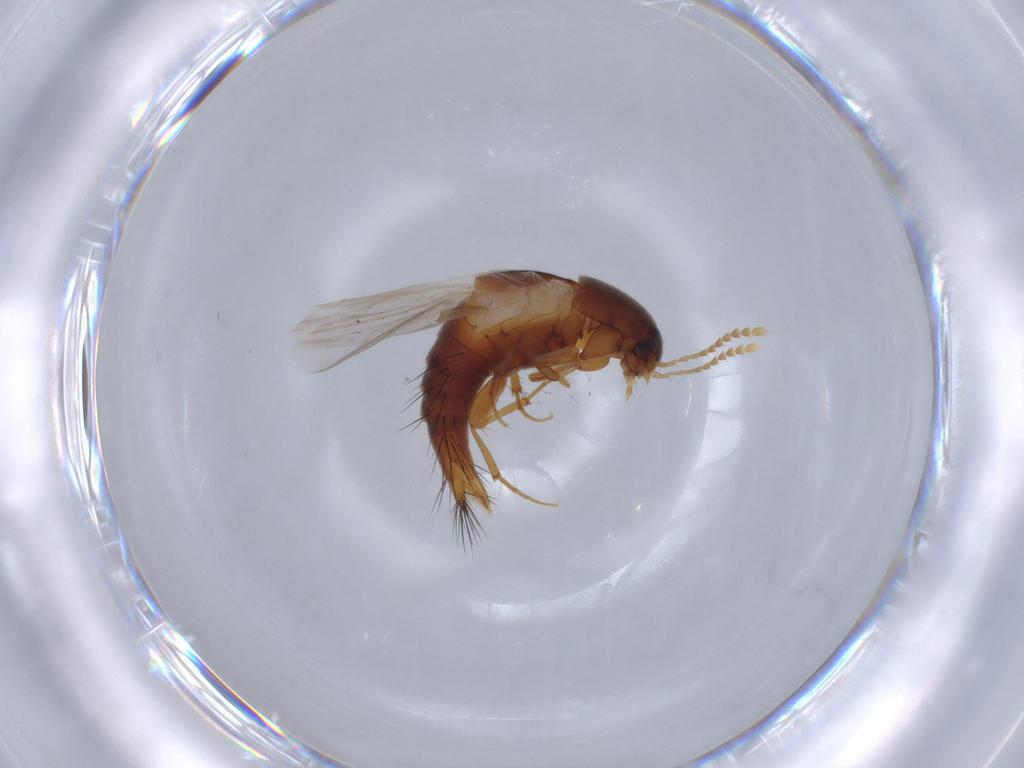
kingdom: Animalia
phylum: Arthropoda
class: Insecta
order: Coleoptera
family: Staphylinidae
